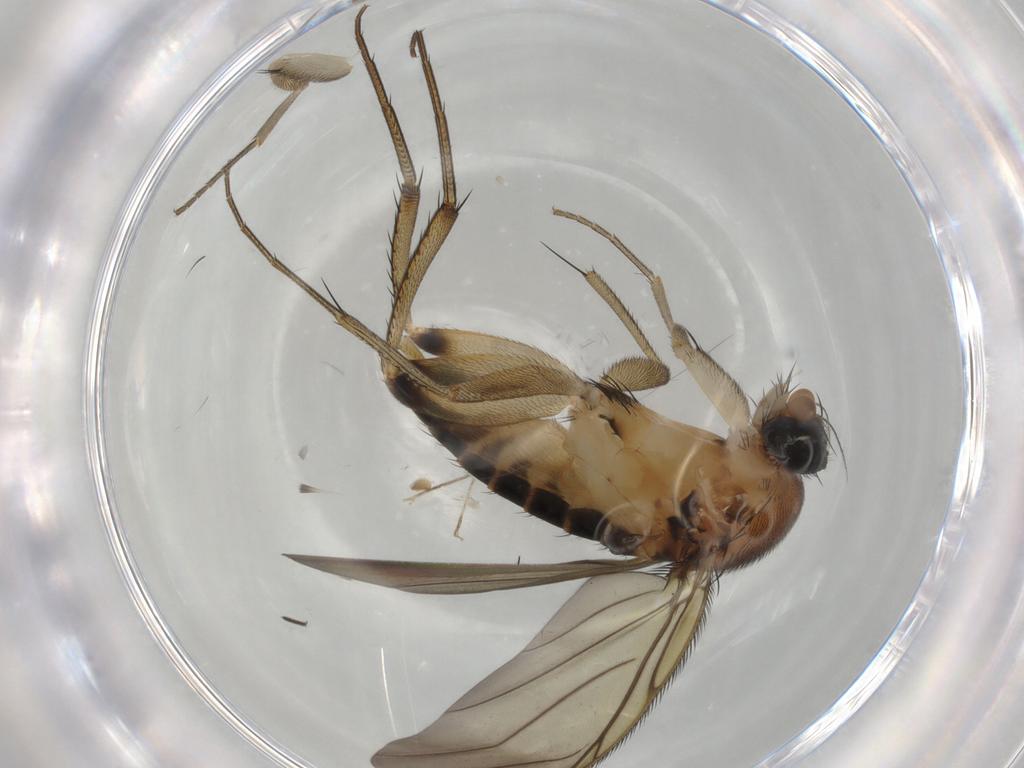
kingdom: Animalia
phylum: Arthropoda
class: Insecta
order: Diptera
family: Phoridae
